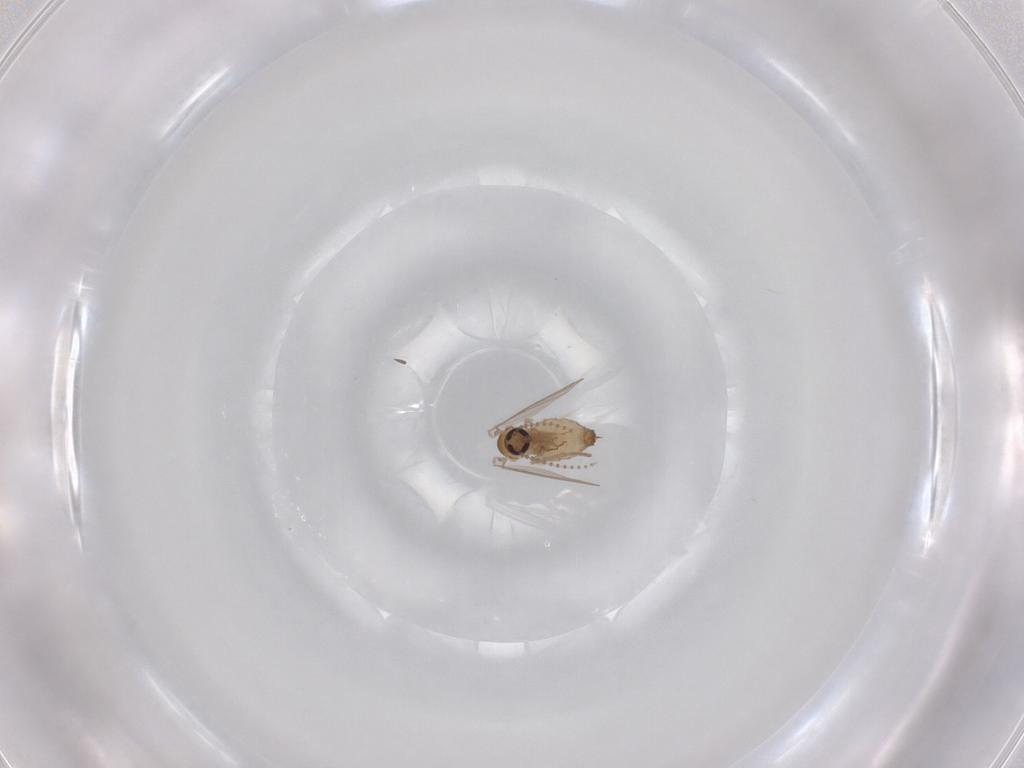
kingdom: Animalia
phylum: Arthropoda
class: Insecta
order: Diptera
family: Psychodidae
